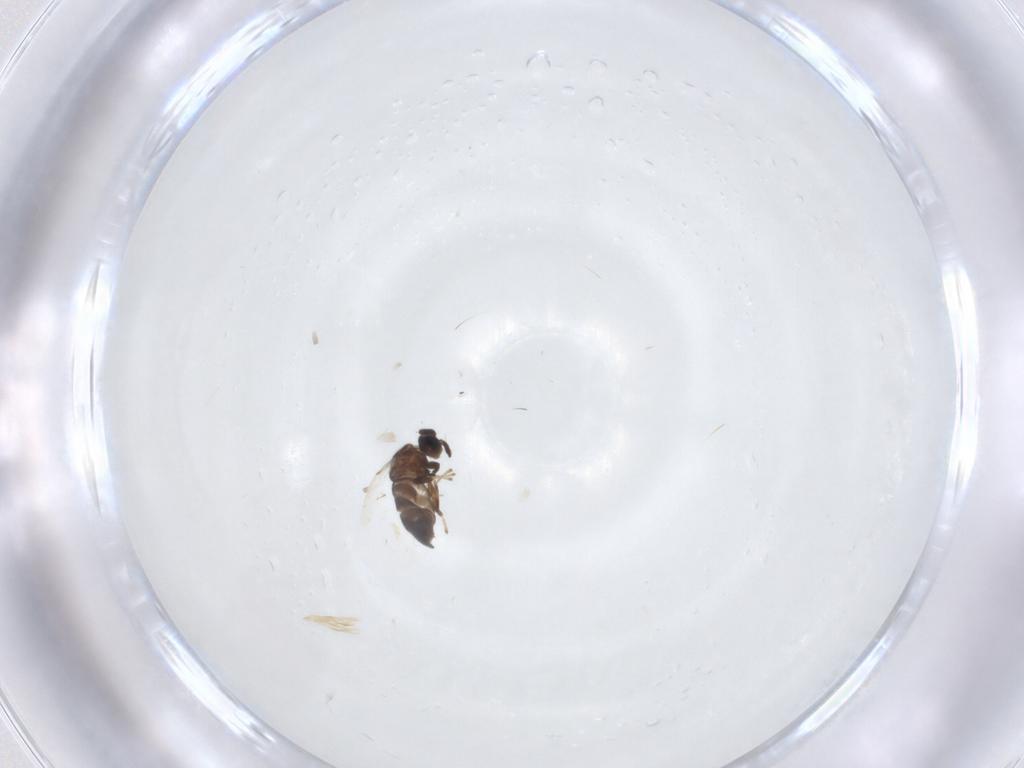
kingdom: Animalia
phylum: Arthropoda
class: Insecta
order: Diptera
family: Scatopsidae
